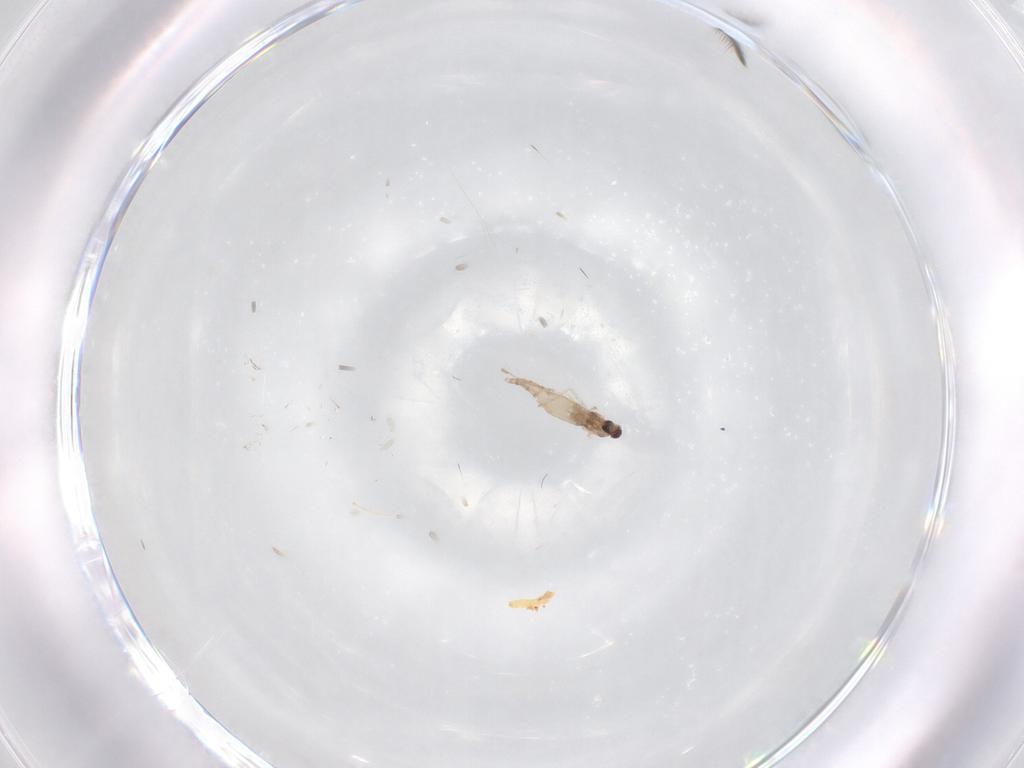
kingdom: Animalia
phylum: Arthropoda
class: Insecta
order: Diptera
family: Cecidomyiidae
